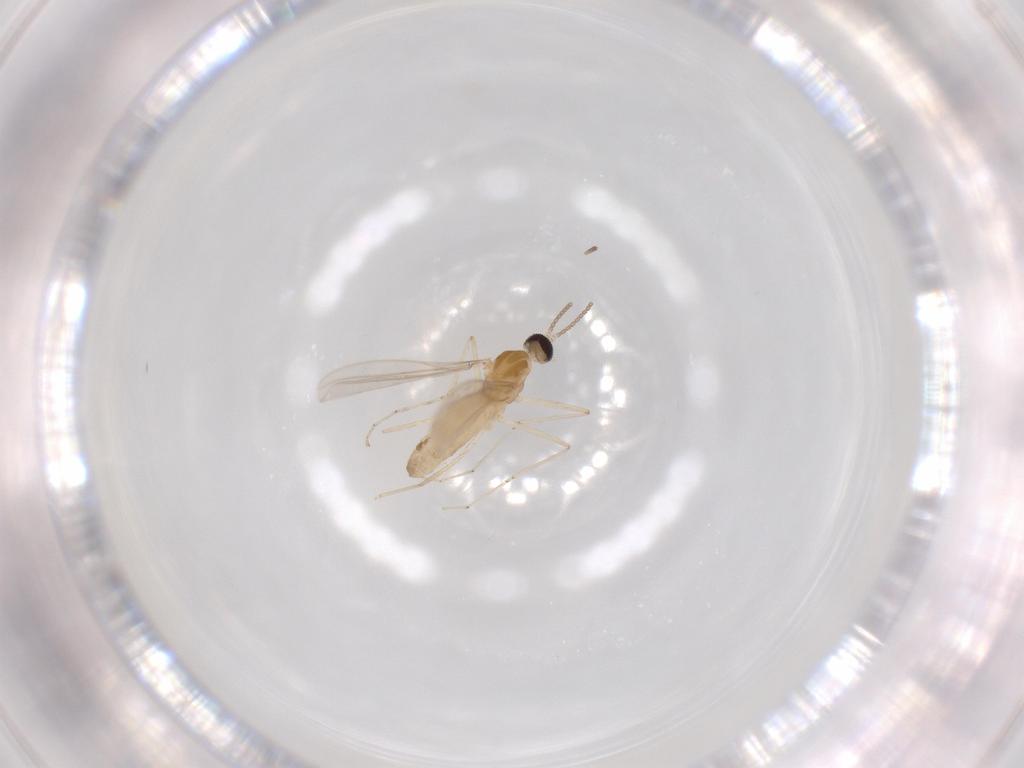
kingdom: Animalia
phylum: Arthropoda
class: Insecta
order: Diptera
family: Cecidomyiidae
